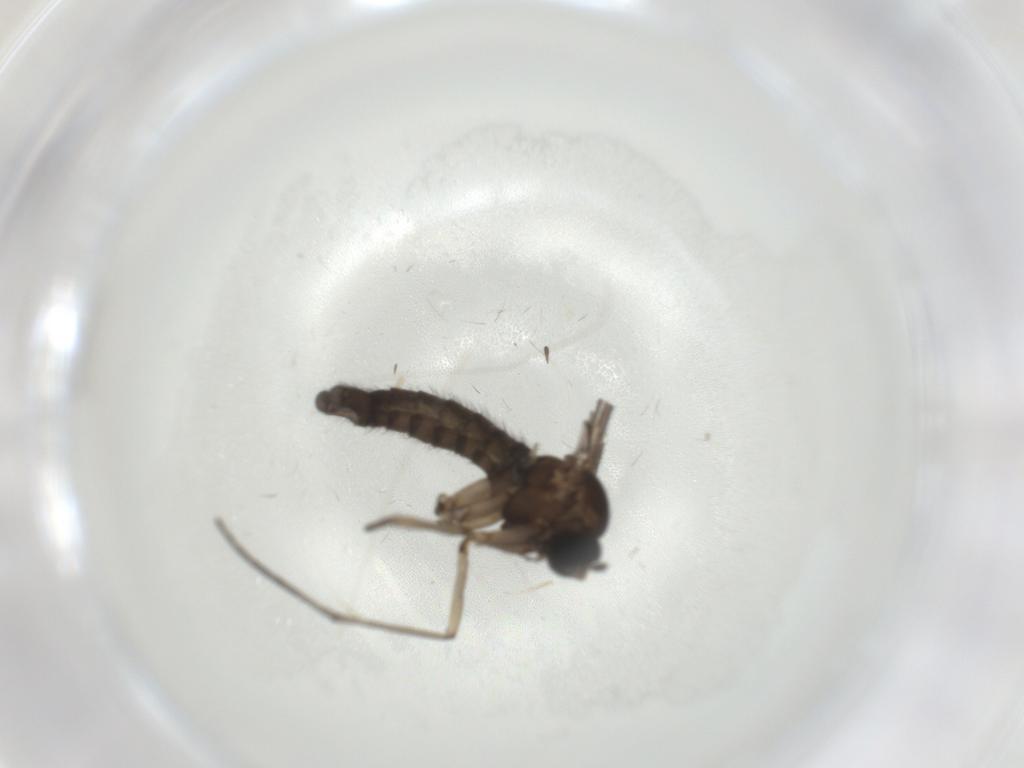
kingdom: Animalia
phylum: Arthropoda
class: Insecta
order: Diptera
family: Sciaridae
